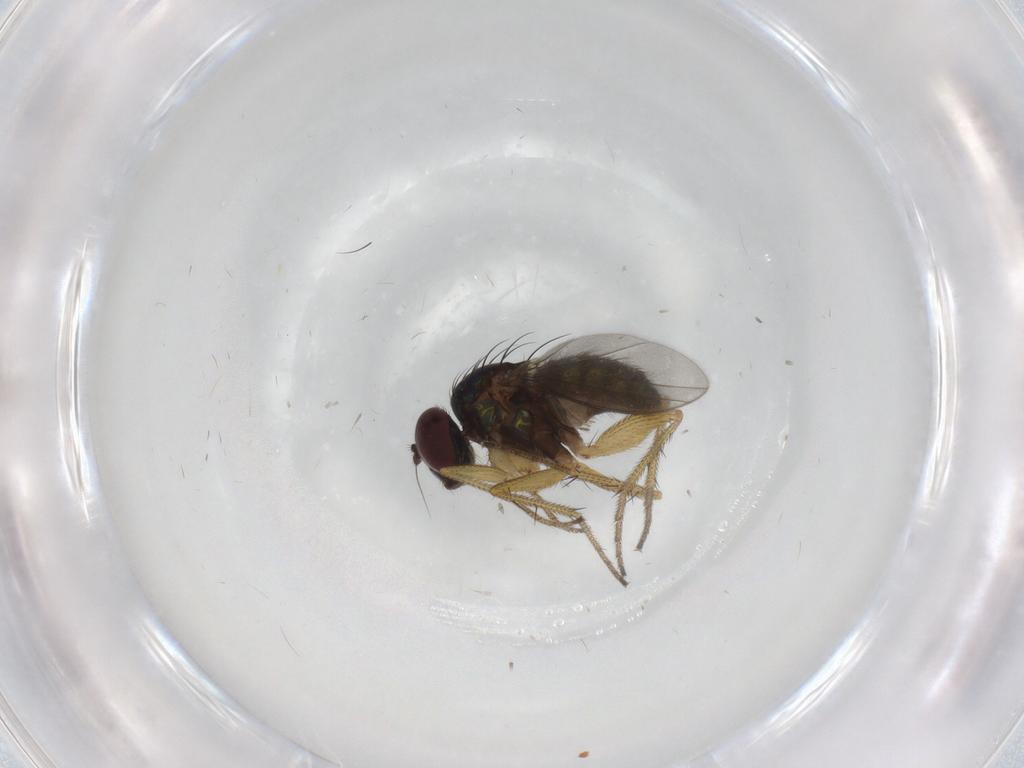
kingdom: Animalia
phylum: Arthropoda
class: Insecta
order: Diptera
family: Dolichopodidae
